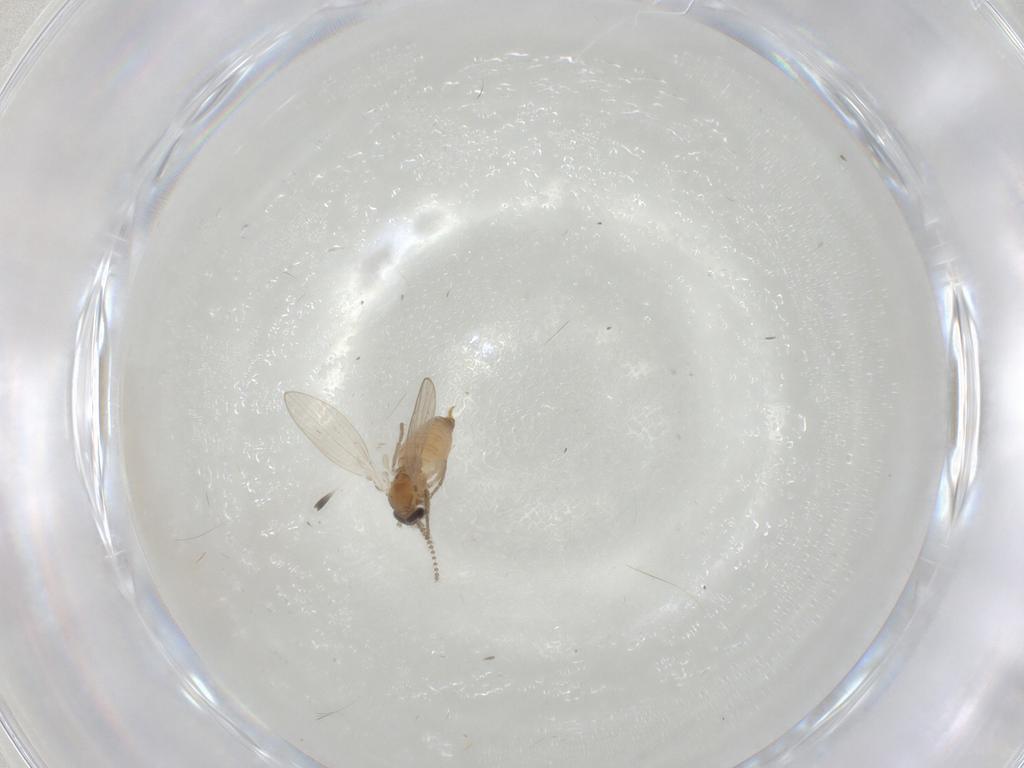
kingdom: Animalia
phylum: Arthropoda
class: Insecta
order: Diptera
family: Psychodidae
